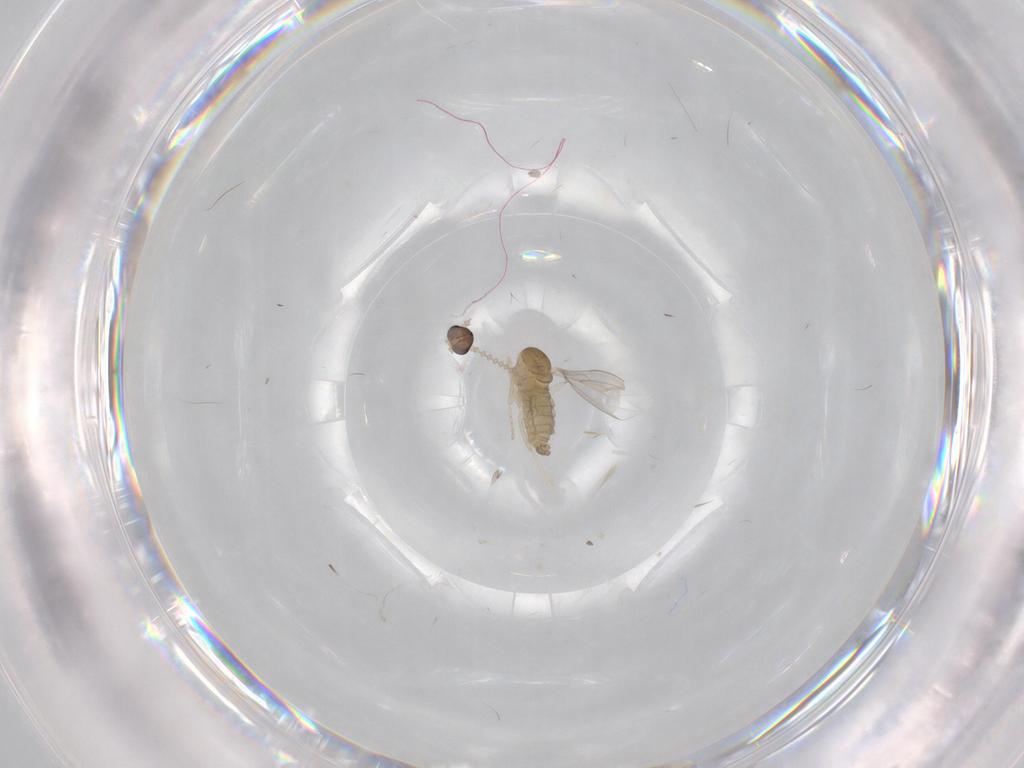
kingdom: Animalia
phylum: Arthropoda
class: Insecta
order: Diptera
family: Cecidomyiidae
